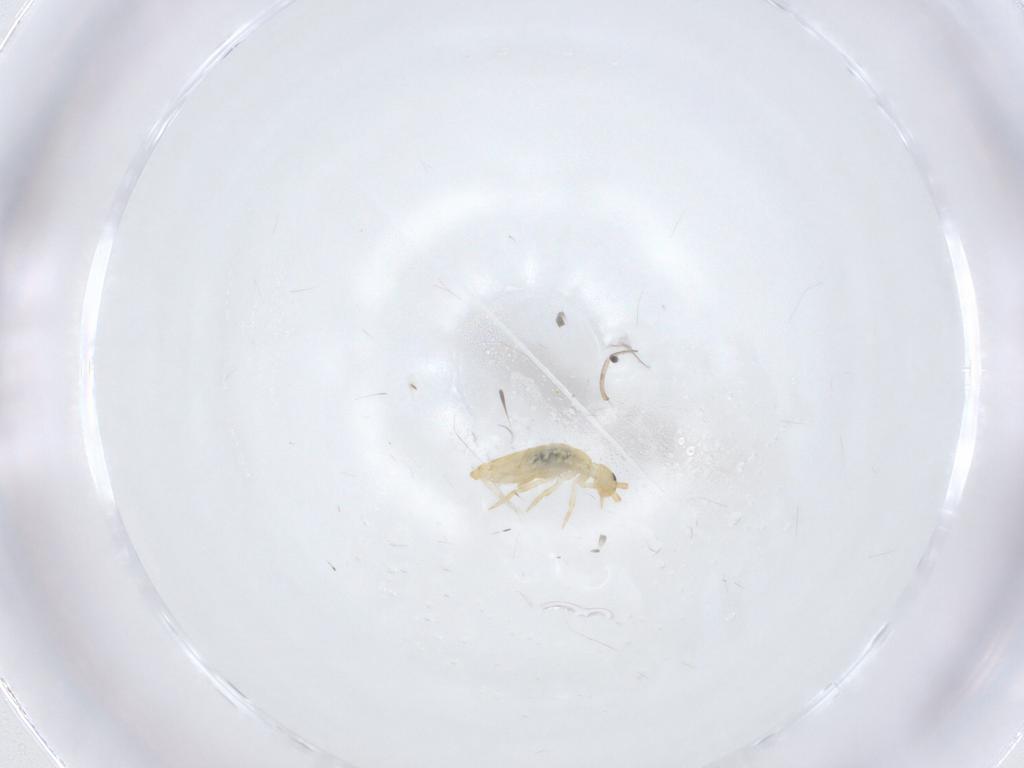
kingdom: Animalia
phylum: Arthropoda
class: Collembola
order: Entomobryomorpha
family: Entomobryidae
